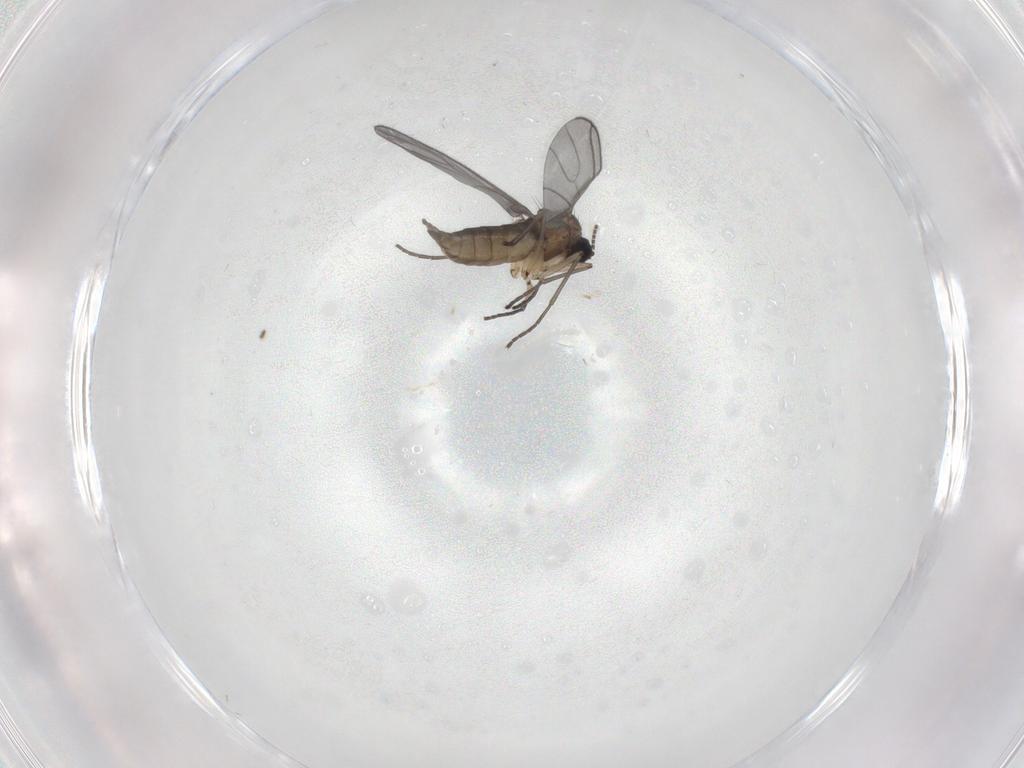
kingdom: Animalia
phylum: Arthropoda
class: Insecta
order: Diptera
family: Sciaridae
